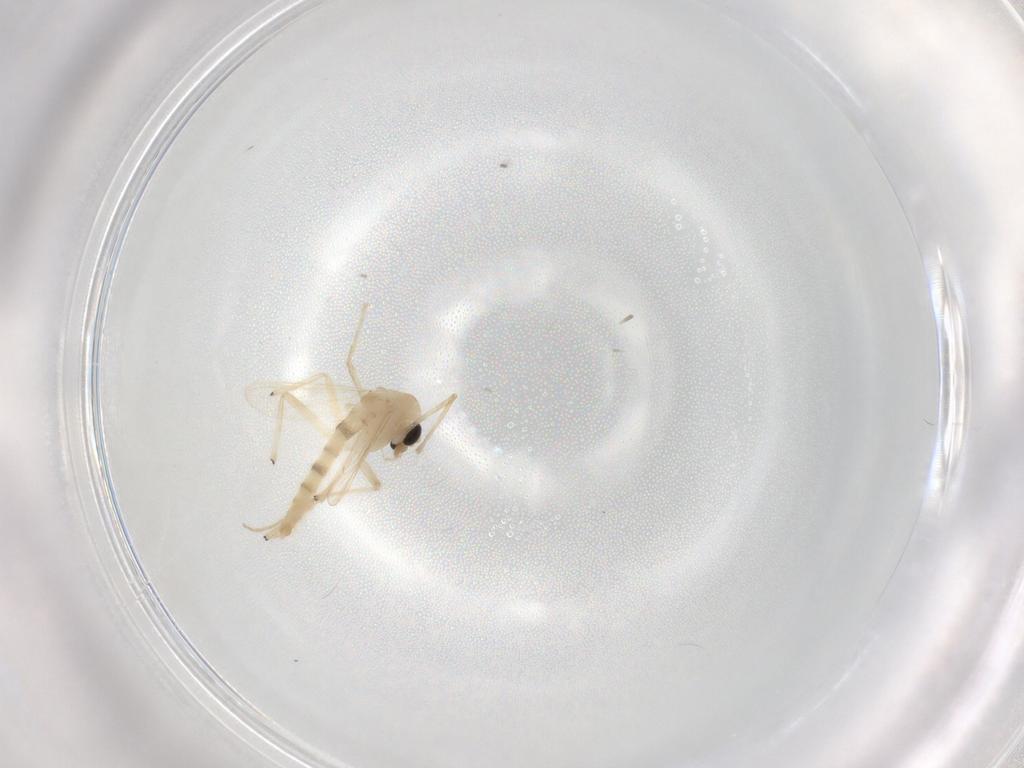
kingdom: Animalia
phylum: Arthropoda
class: Insecta
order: Diptera
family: Chironomidae
